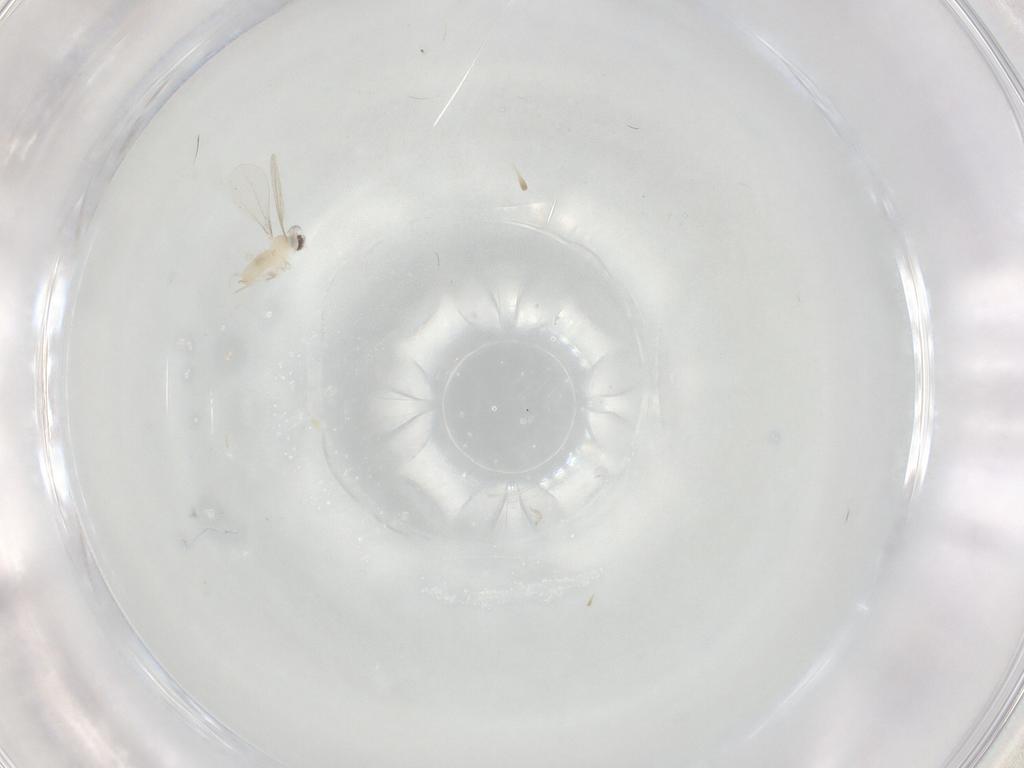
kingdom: Animalia
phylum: Arthropoda
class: Insecta
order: Diptera
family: Cecidomyiidae
